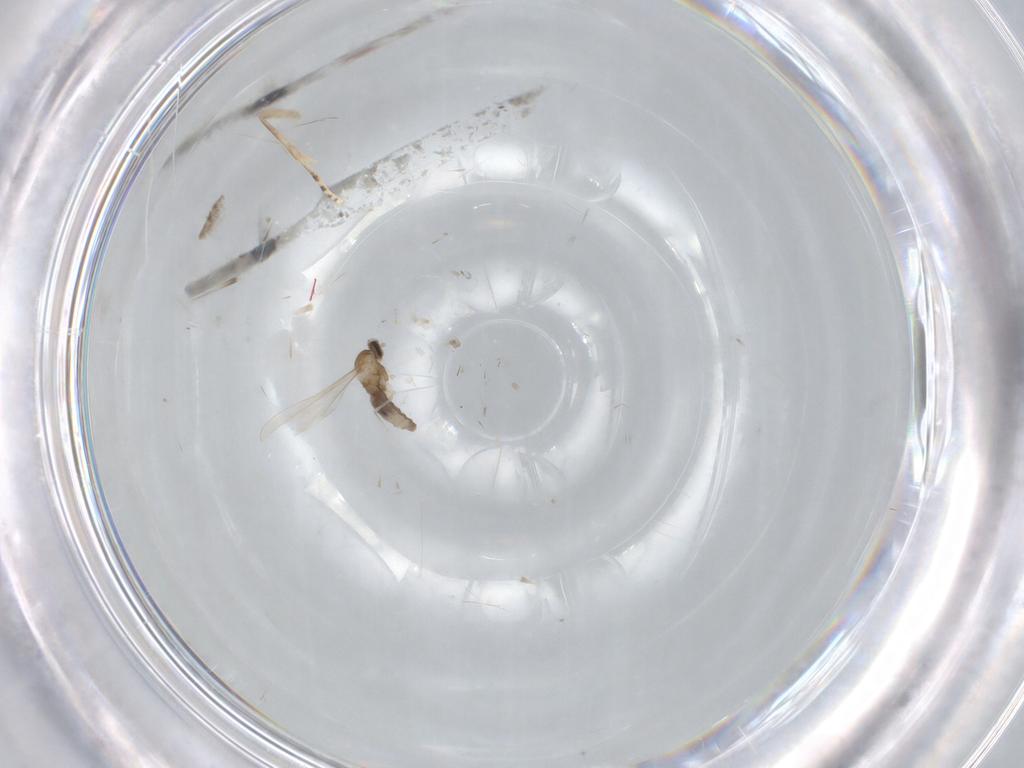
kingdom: Animalia
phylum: Arthropoda
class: Insecta
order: Diptera
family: Cecidomyiidae
